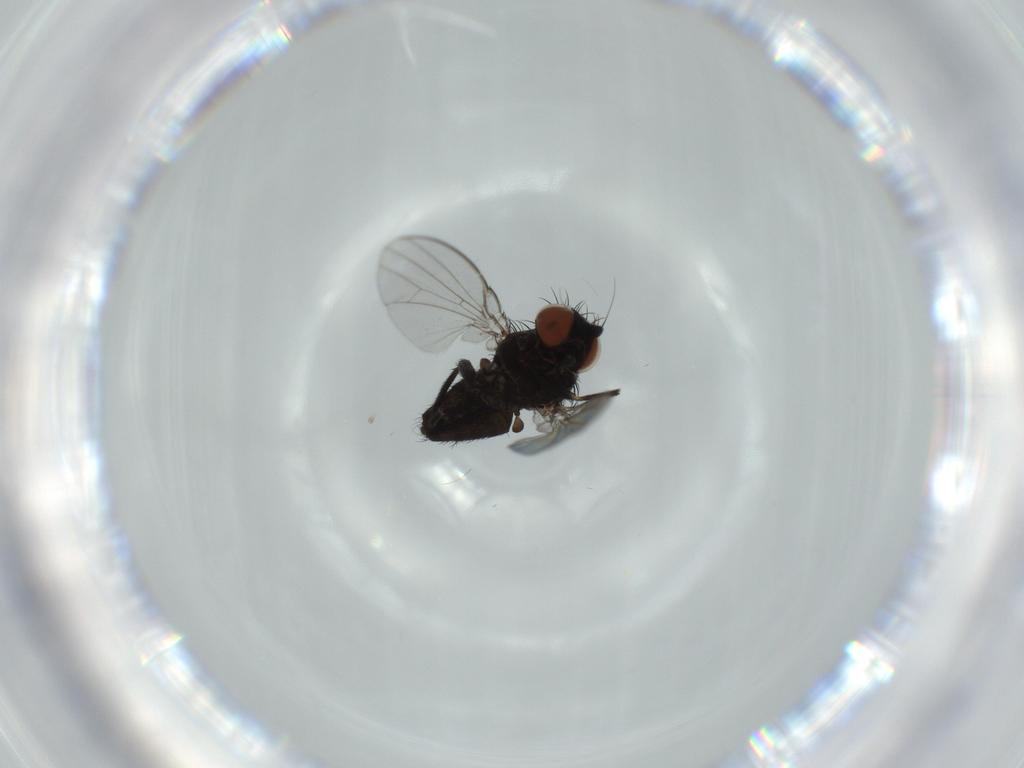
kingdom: Animalia
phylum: Arthropoda
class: Insecta
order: Diptera
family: Milichiidae
